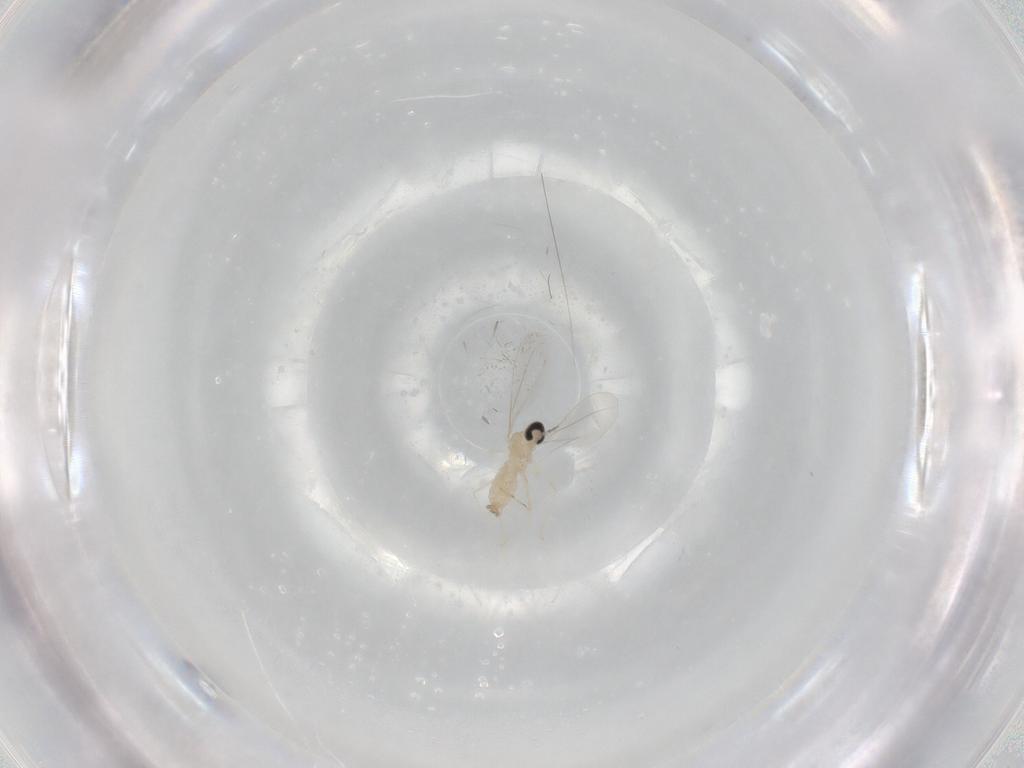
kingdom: Animalia
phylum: Arthropoda
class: Insecta
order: Diptera
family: Cecidomyiidae
